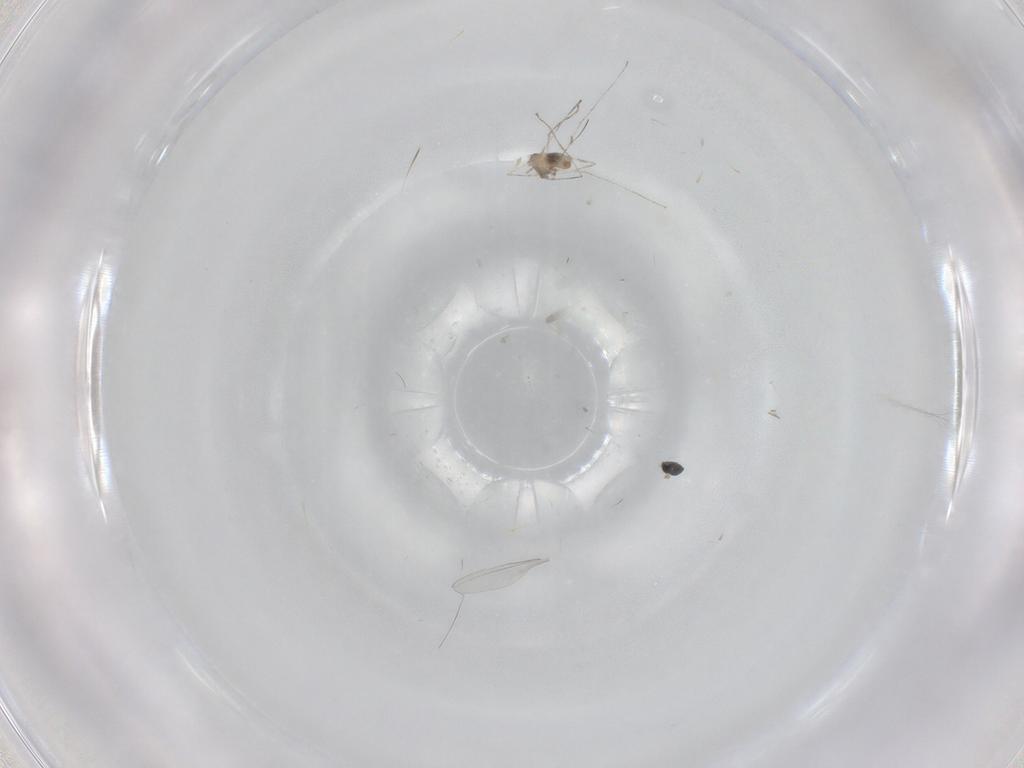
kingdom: Animalia
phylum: Arthropoda
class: Insecta
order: Diptera
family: Cecidomyiidae
